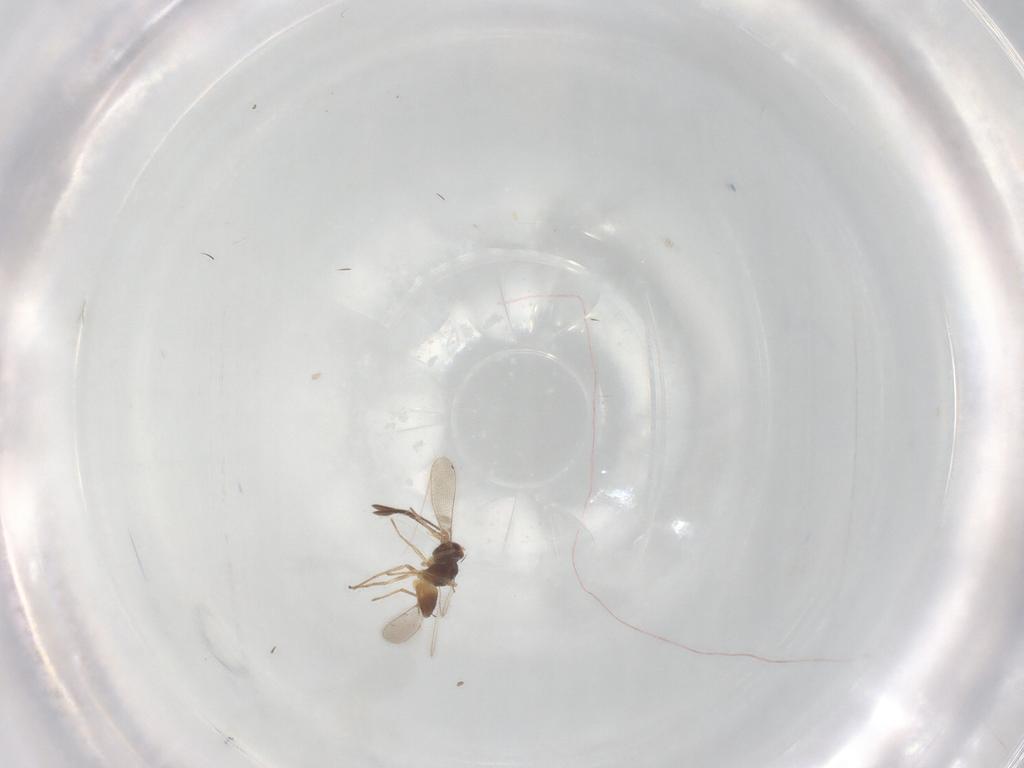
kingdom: Animalia
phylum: Arthropoda
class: Insecta
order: Hymenoptera
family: Mymaridae
